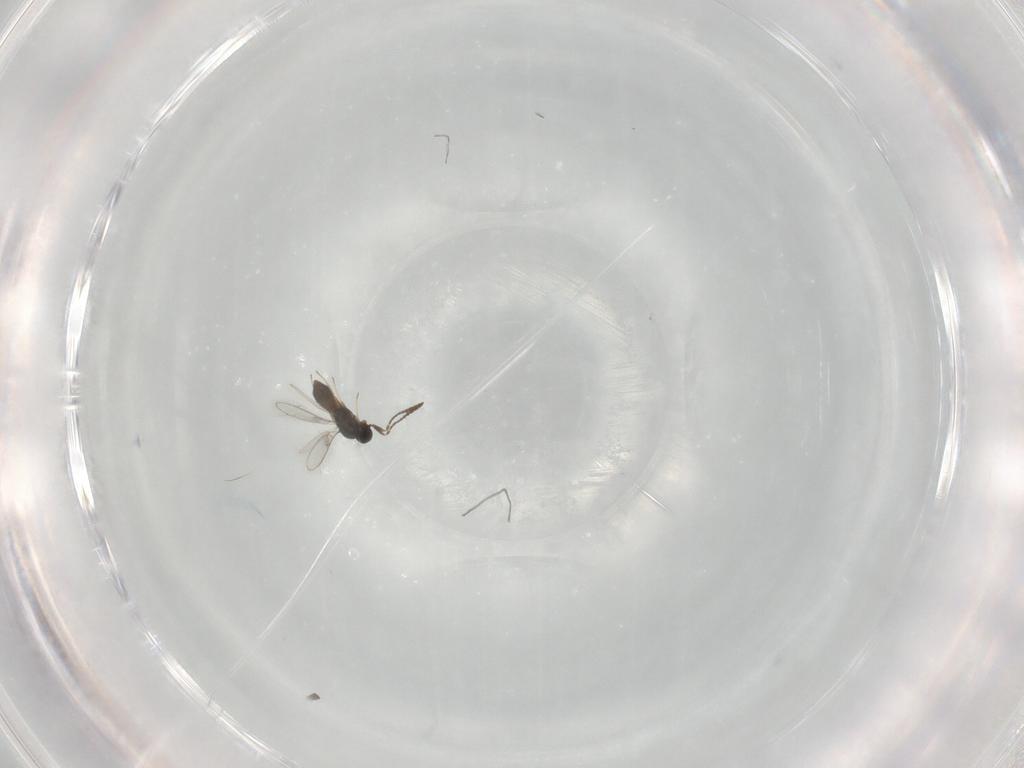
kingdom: Animalia
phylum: Arthropoda
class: Insecta
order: Hymenoptera
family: Scelionidae
